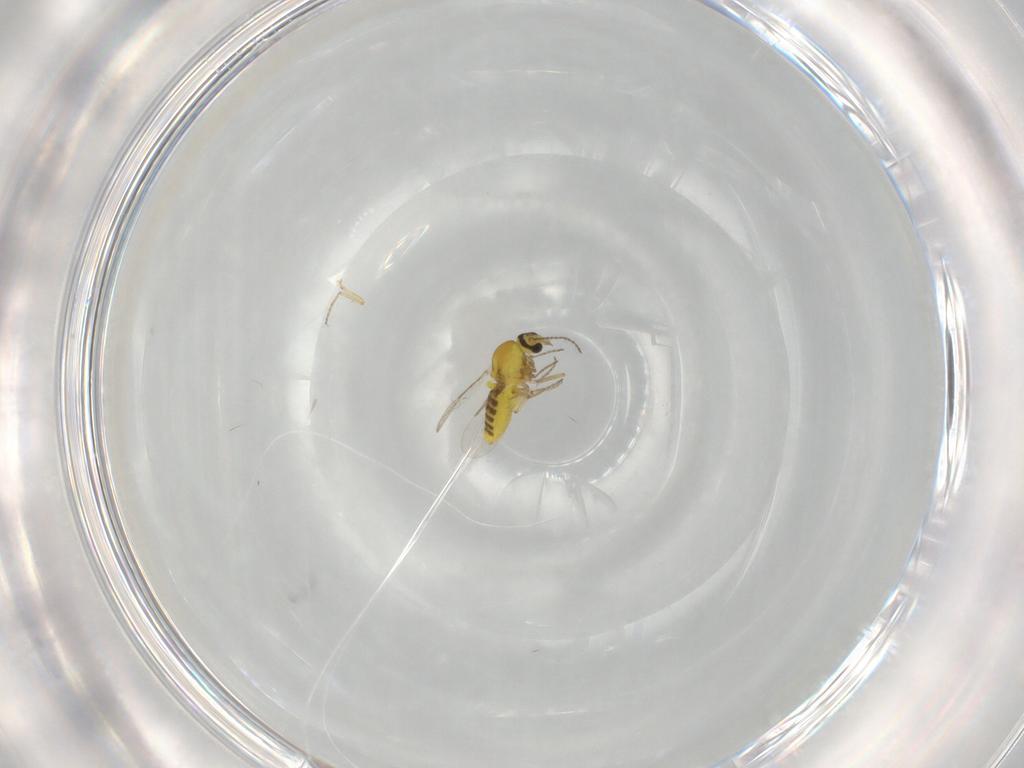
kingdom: Animalia
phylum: Arthropoda
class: Insecta
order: Diptera
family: Ceratopogonidae
